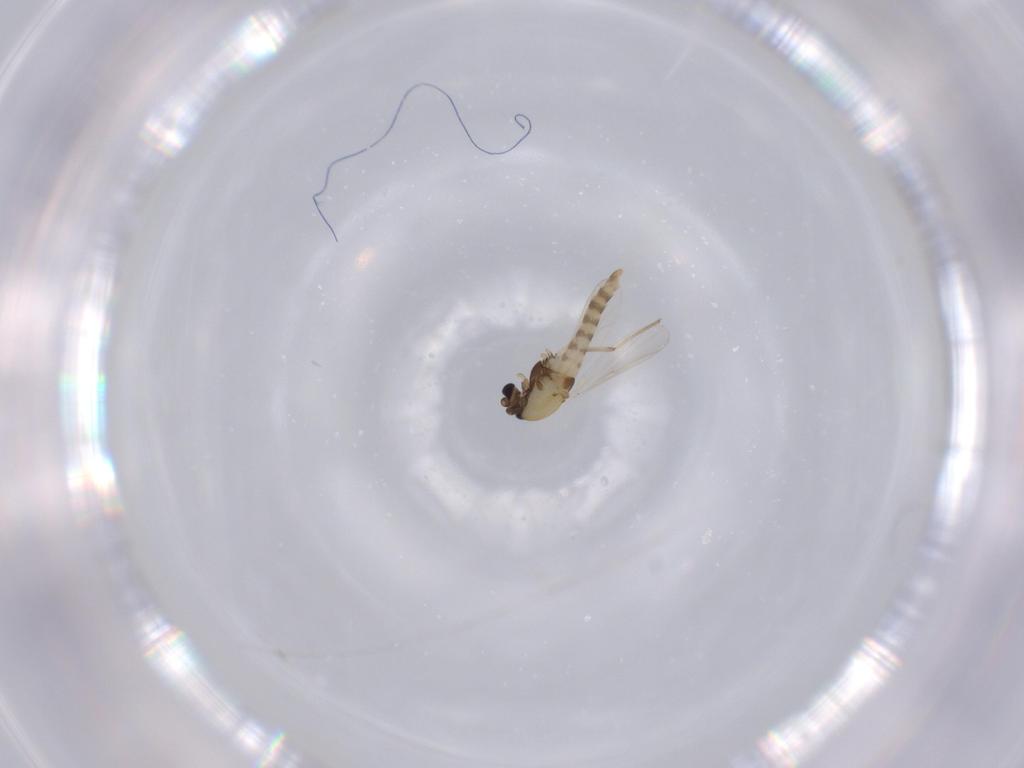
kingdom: Animalia
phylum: Arthropoda
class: Insecta
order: Diptera
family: Chironomidae
